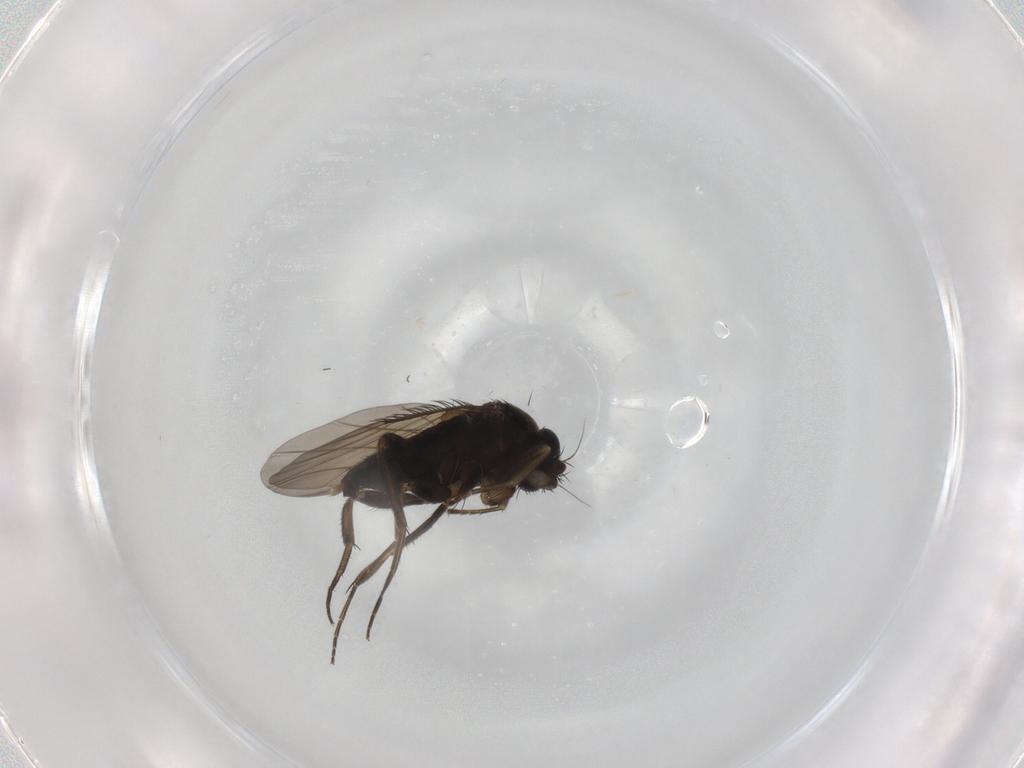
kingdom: Animalia
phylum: Arthropoda
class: Insecta
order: Diptera
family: Phoridae
